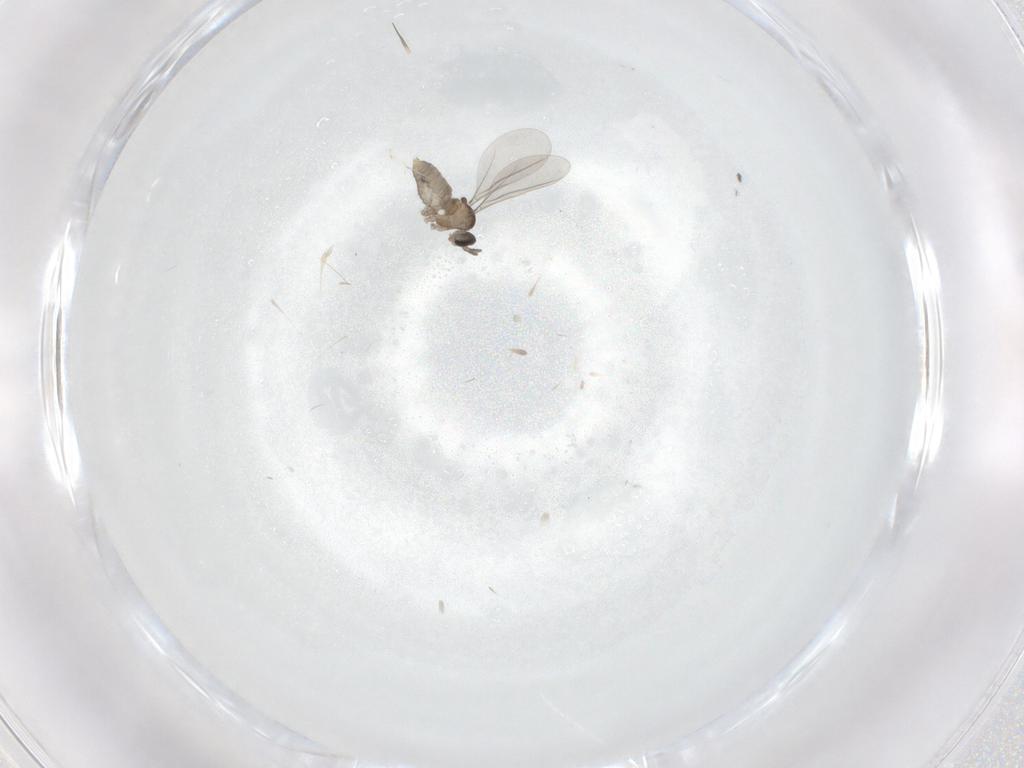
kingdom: Animalia
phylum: Arthropoda
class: Insecta
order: Diptera
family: Cecidomyiidae
